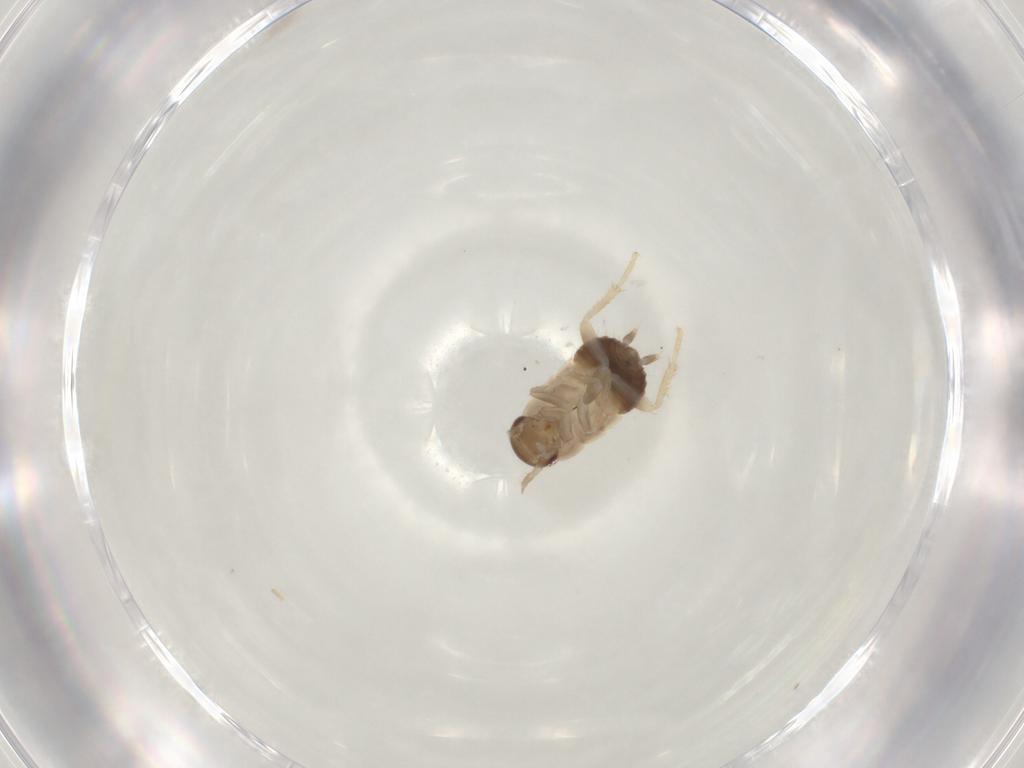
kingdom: Animalia
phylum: Arthropoda
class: Insecta
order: Blattodea
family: Ectobiidae
